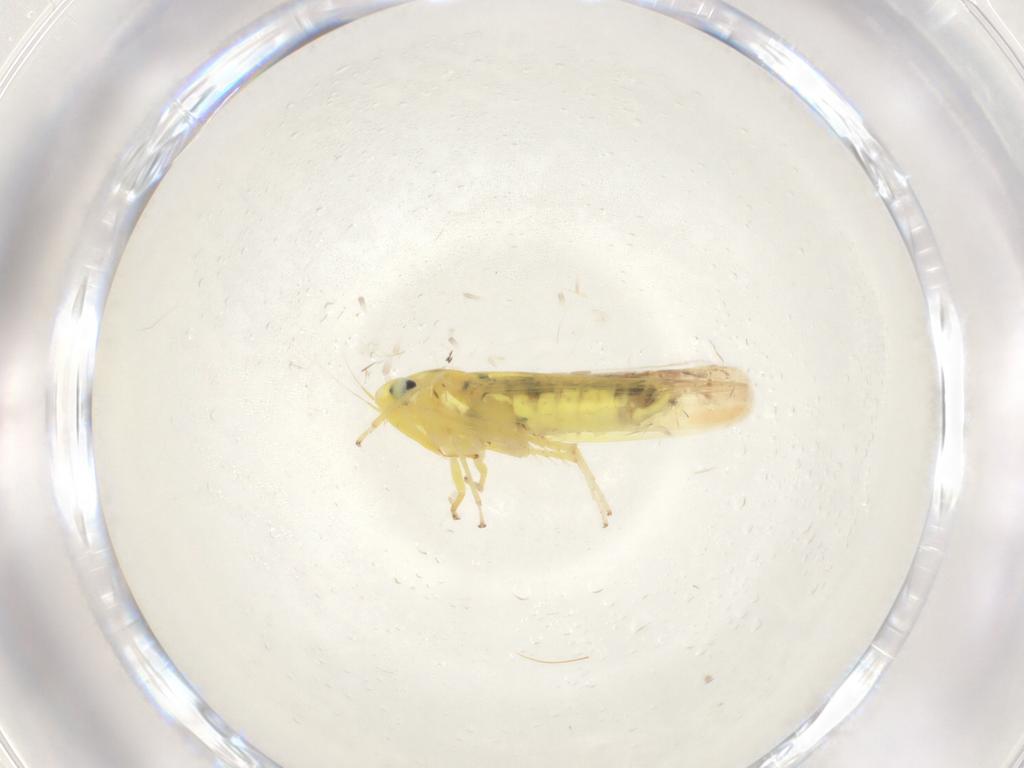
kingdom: Animalia
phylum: Arthropoda
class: Insecta
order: Hemiptera
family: Cicadellidae
